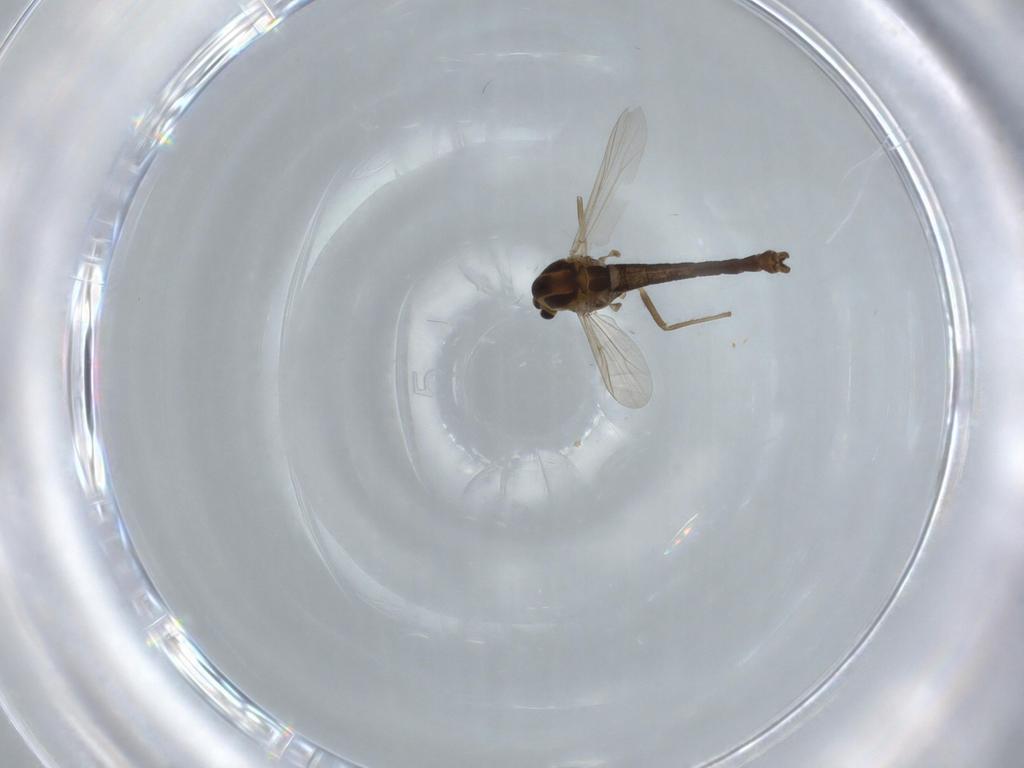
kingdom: Animalia
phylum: Arthropoda
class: Insecta
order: Diptera
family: Chironomidae
